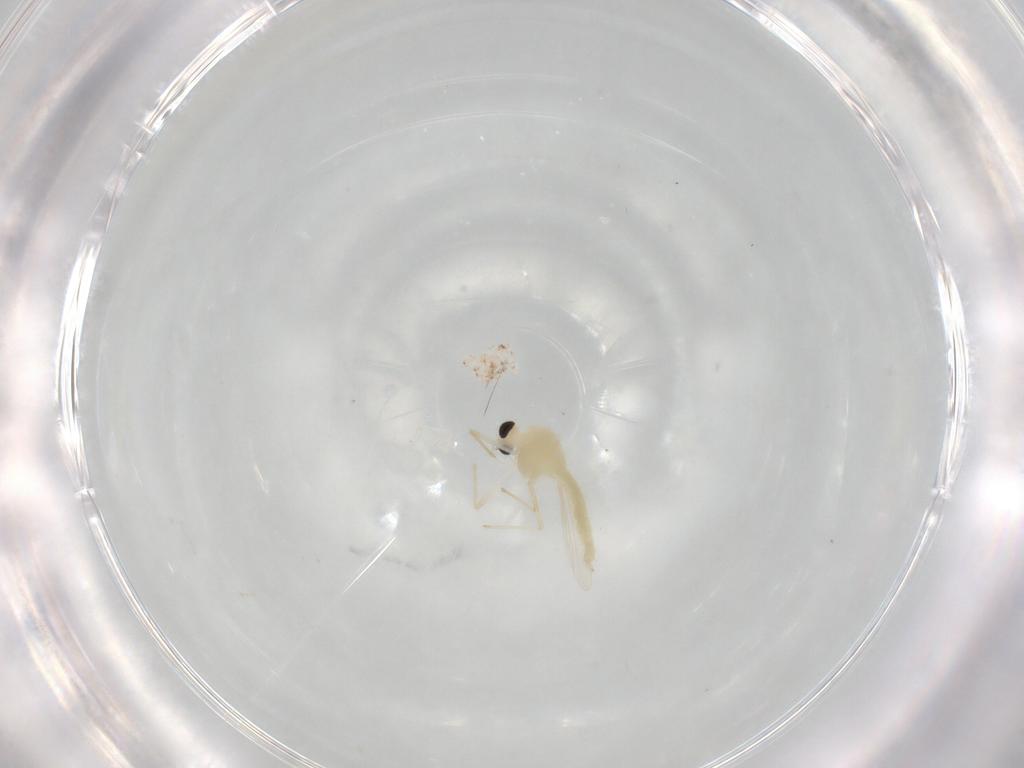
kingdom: Animalia
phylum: Arthropoda
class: Insecta
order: Diptera
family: Chironomidae
